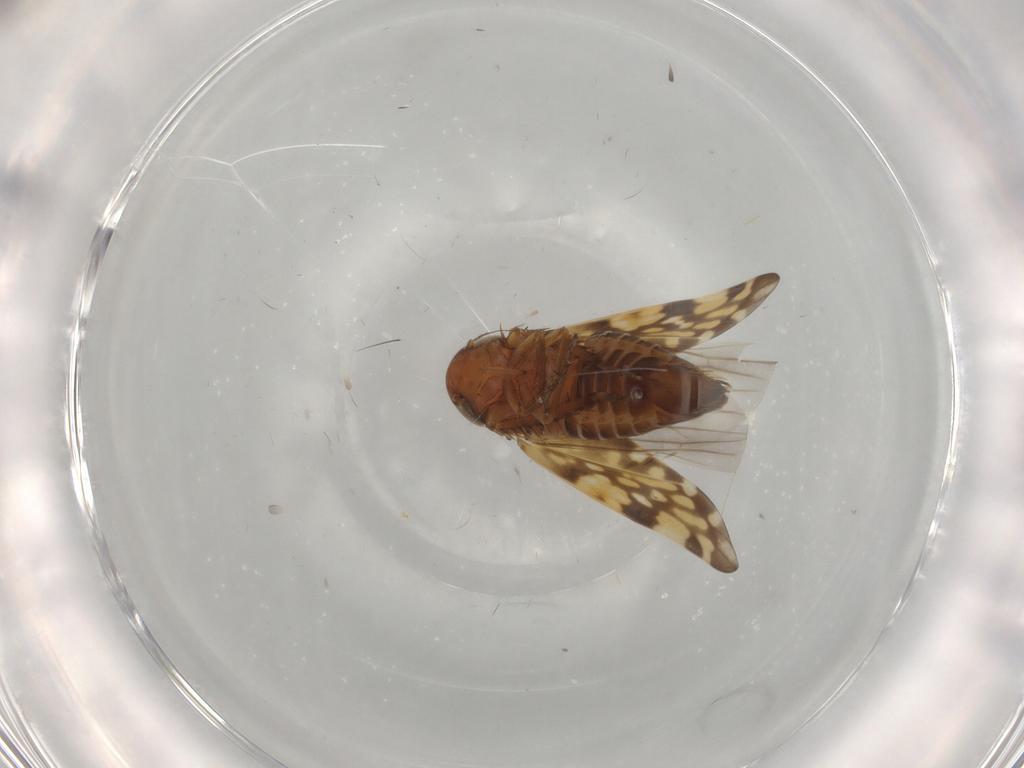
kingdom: Animalia
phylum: Arthropoda
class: Insecta
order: Hemiptera
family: Cicadellidae
